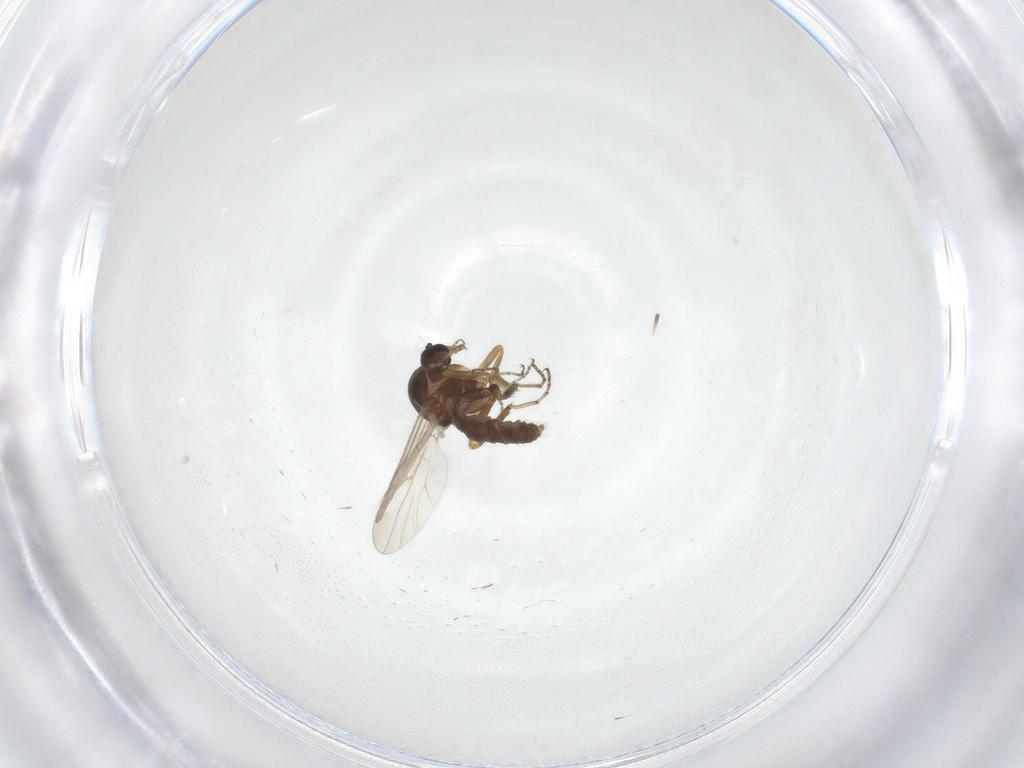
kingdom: Animalia
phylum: Arthropoda
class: Insecta
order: Diptera
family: Ceratopogonidae
